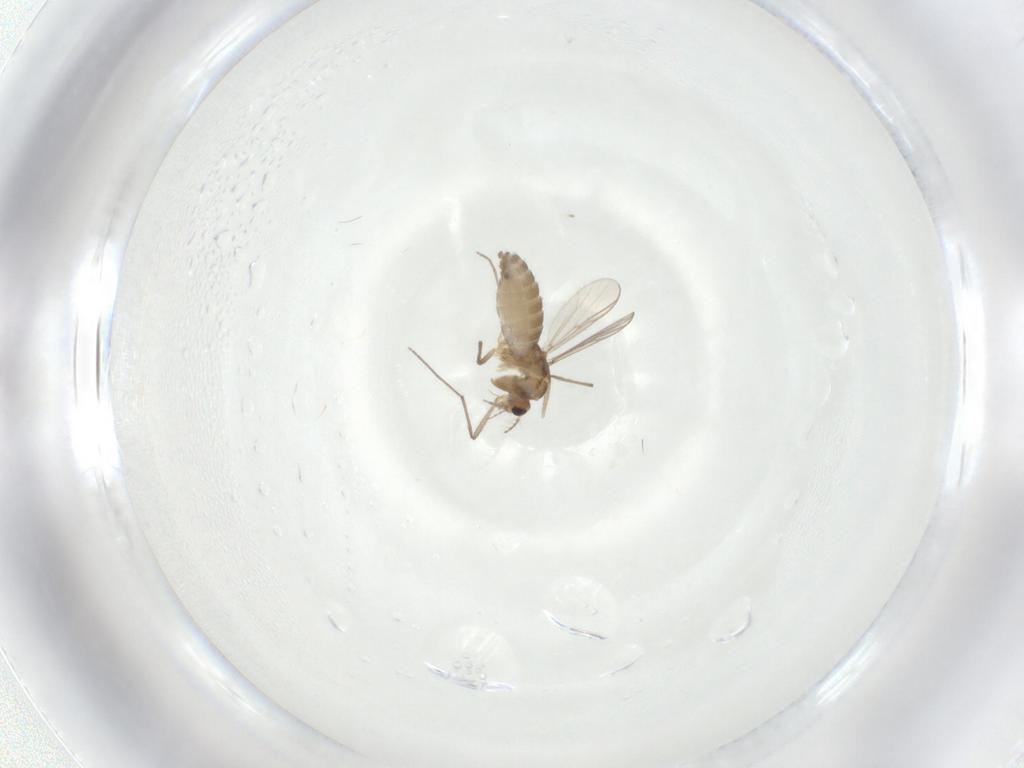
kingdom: Animalia
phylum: Arthropoda
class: Insecta
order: Diptera
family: Chironomidae
